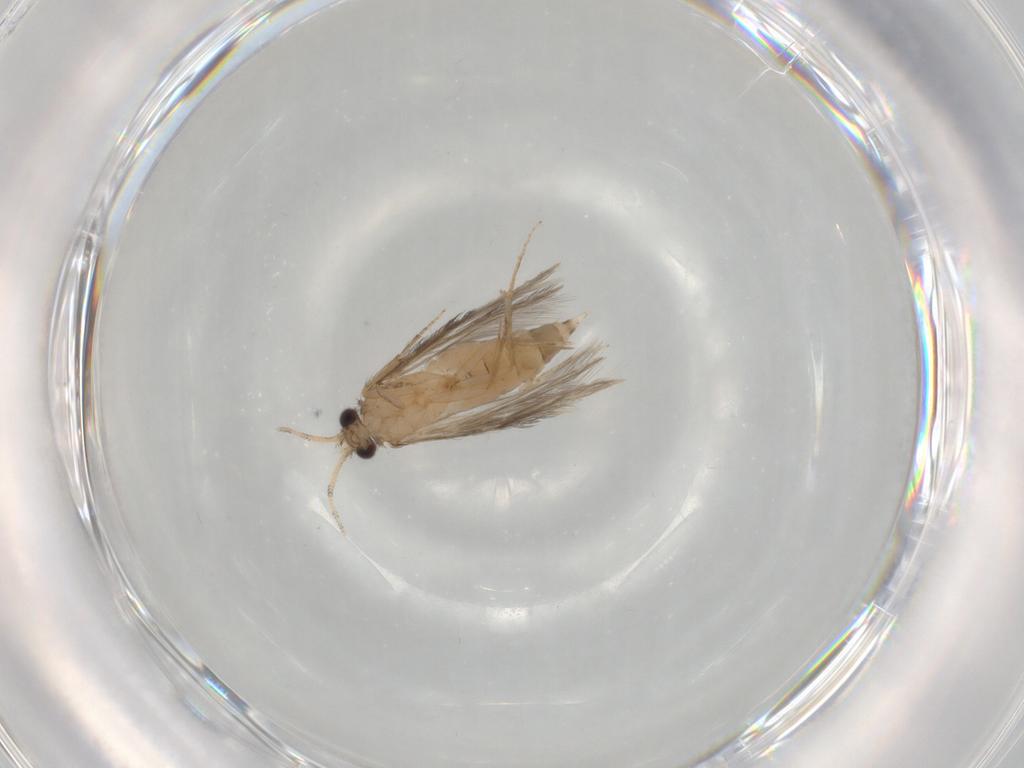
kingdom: Animalia
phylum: Arthropoda
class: Insecta
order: Trichoptera
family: Hydroptilidae
